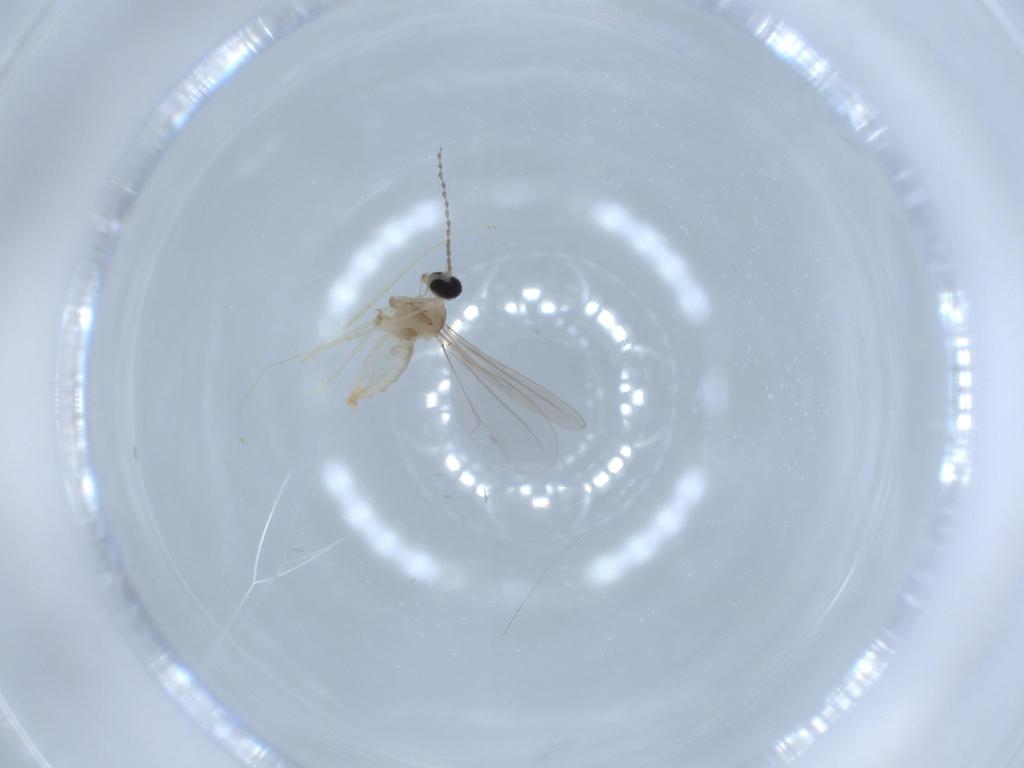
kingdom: Animalia
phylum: Arthropoda
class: Insecta
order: Diptera
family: Cecidomyiidae
